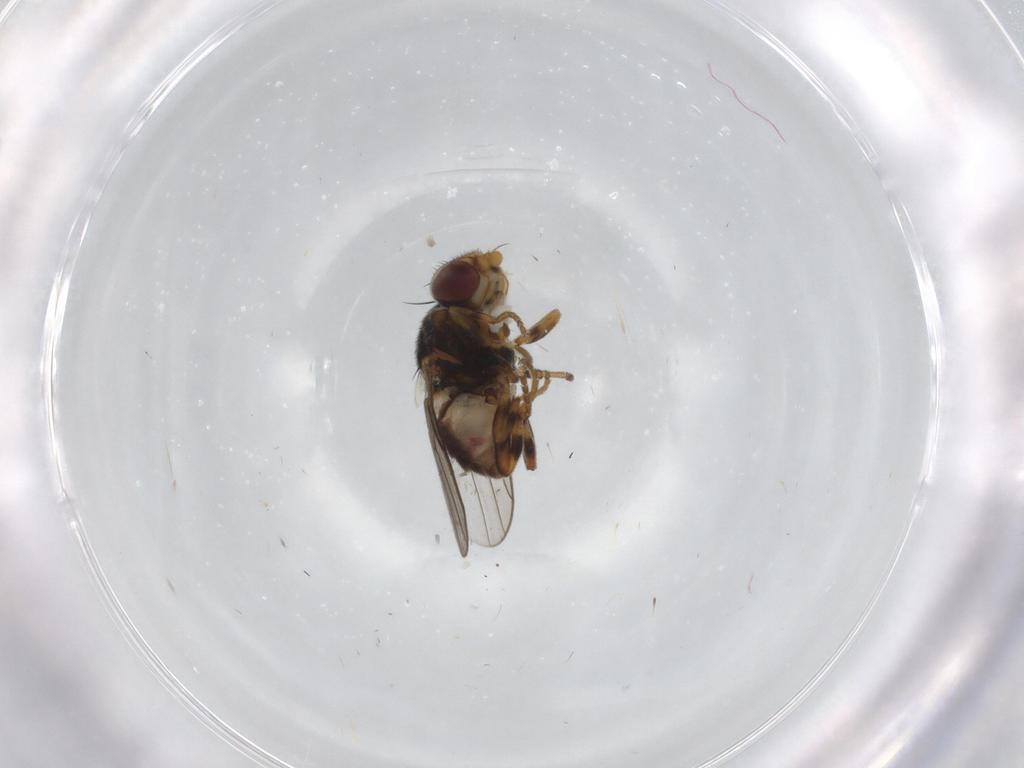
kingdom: Animalia
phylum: Arthropoda
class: Insecta
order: Diptera
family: Chloropidae
